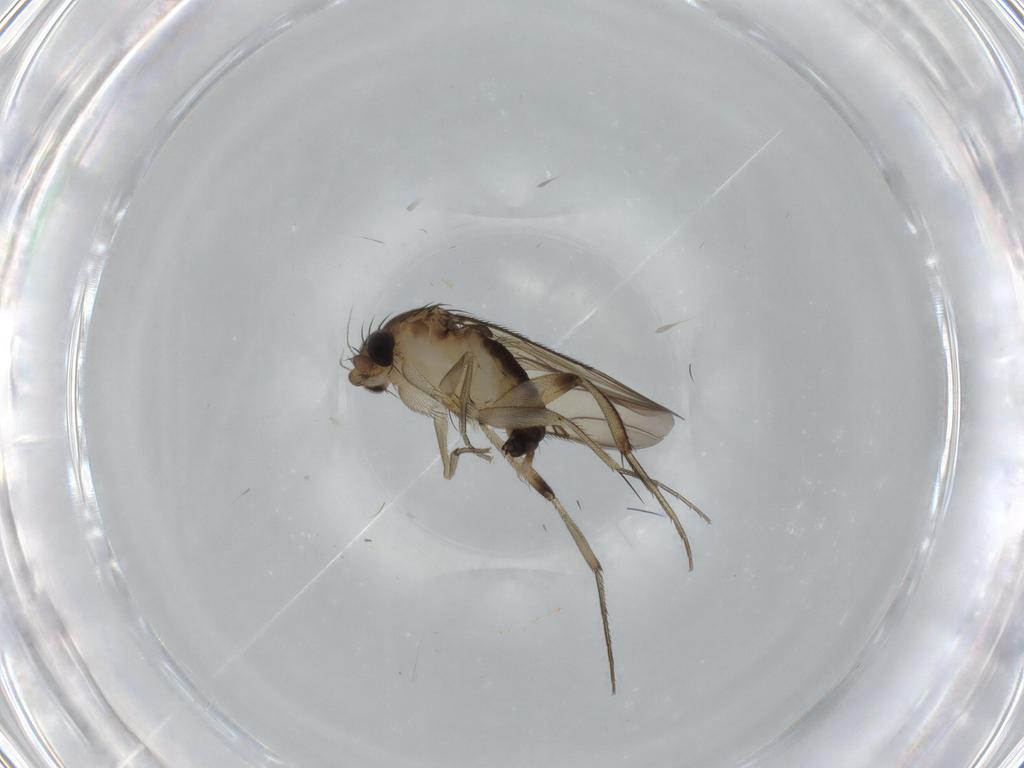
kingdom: Animalia
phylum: Arthropoda
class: Insecta
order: Diptera
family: Phoridae
